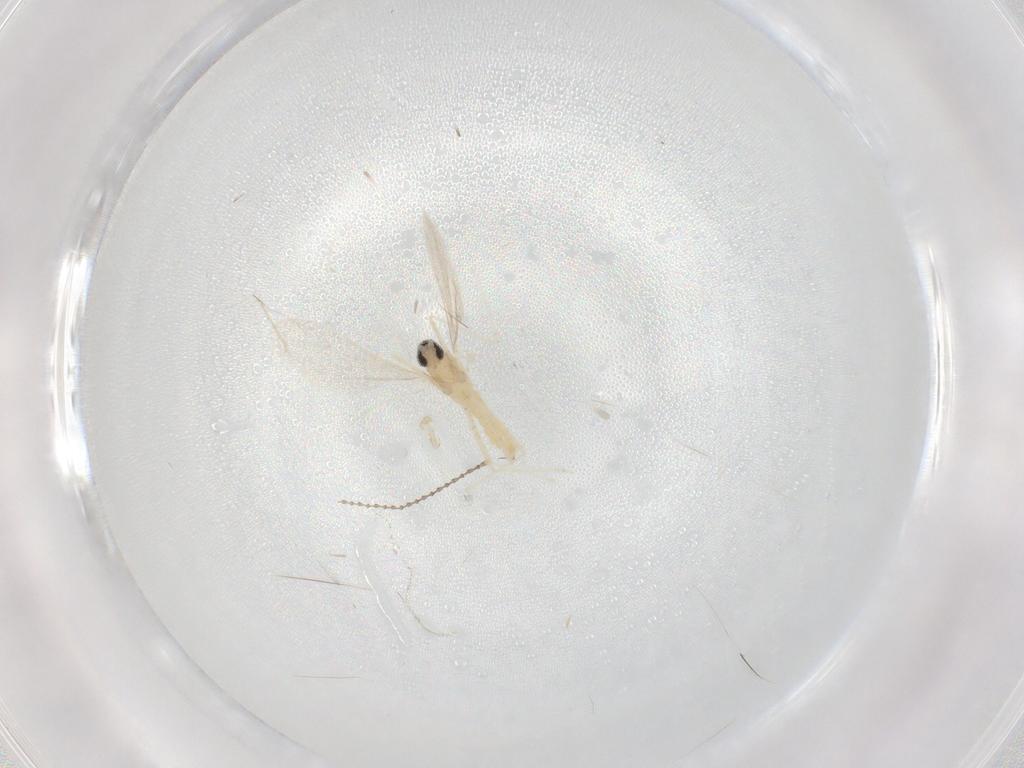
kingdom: Animalia
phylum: Arthropoda
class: Insecta
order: Diptera
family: Cecidomyiidae
